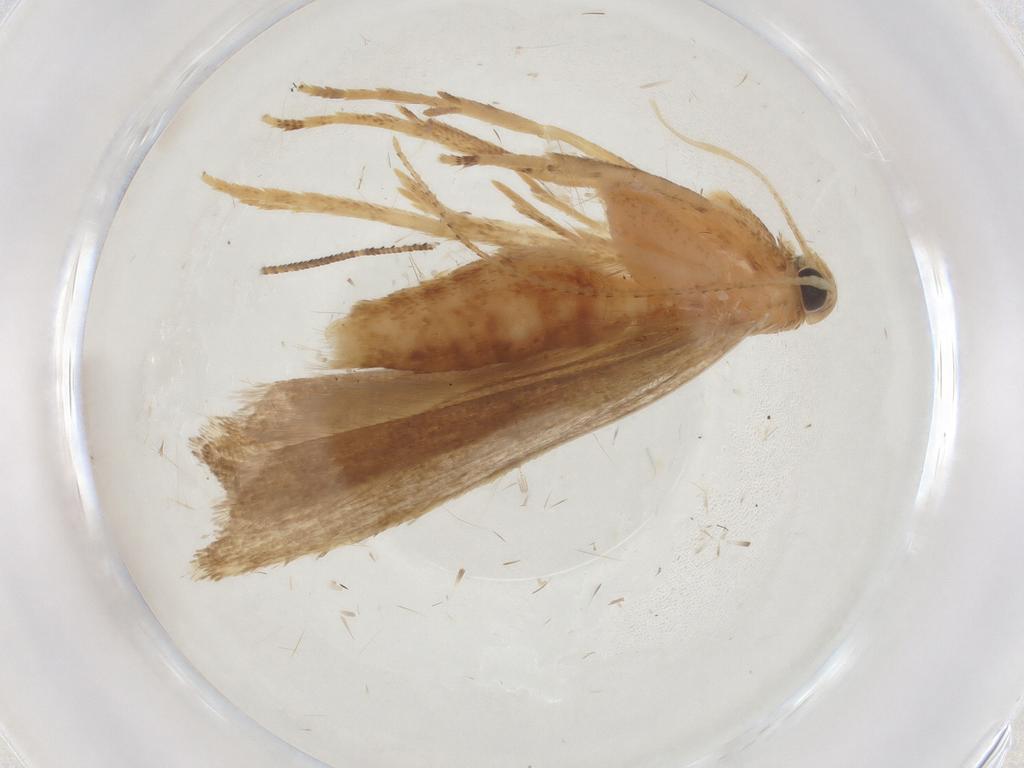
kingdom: Animalia
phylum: Arthropoda
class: Insecta
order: Lepidoptera
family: Gelechiidae
